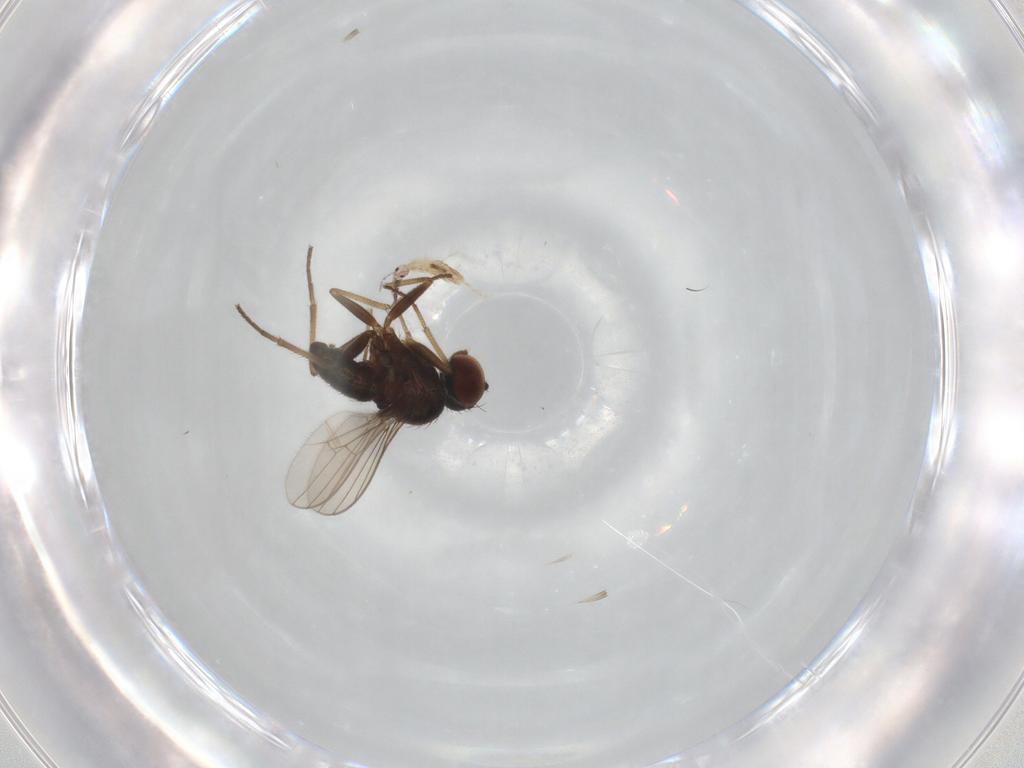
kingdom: Animalia
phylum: Arthropoda
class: Insecta
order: Diptera
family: Dolichopodidae
